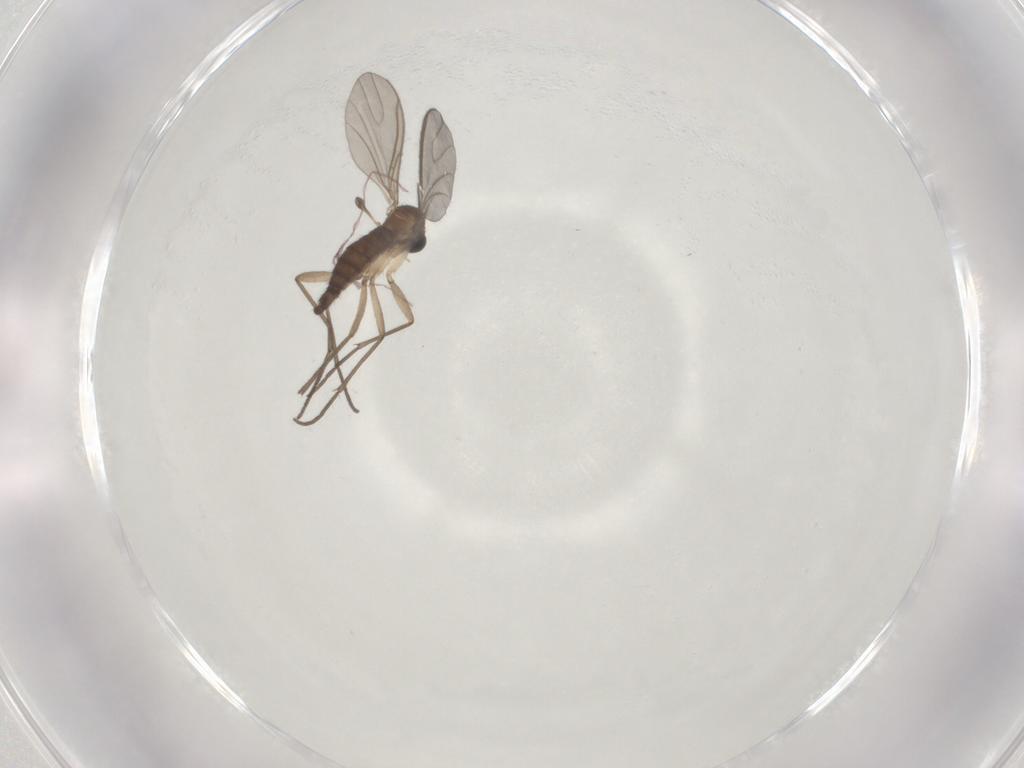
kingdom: Animalia
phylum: Arthropoda
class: Insecta
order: Diptera
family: Sciaridae
